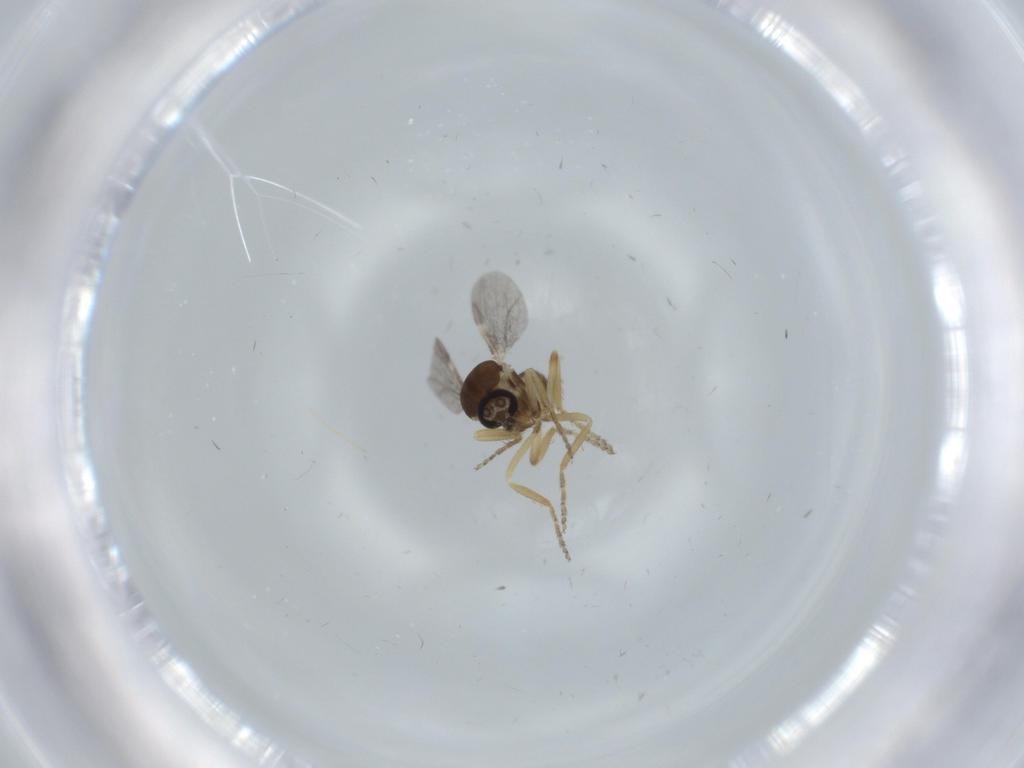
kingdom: Animalia
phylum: Arthropoda
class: Insecta
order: Diptera
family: Ceratopogonidae
